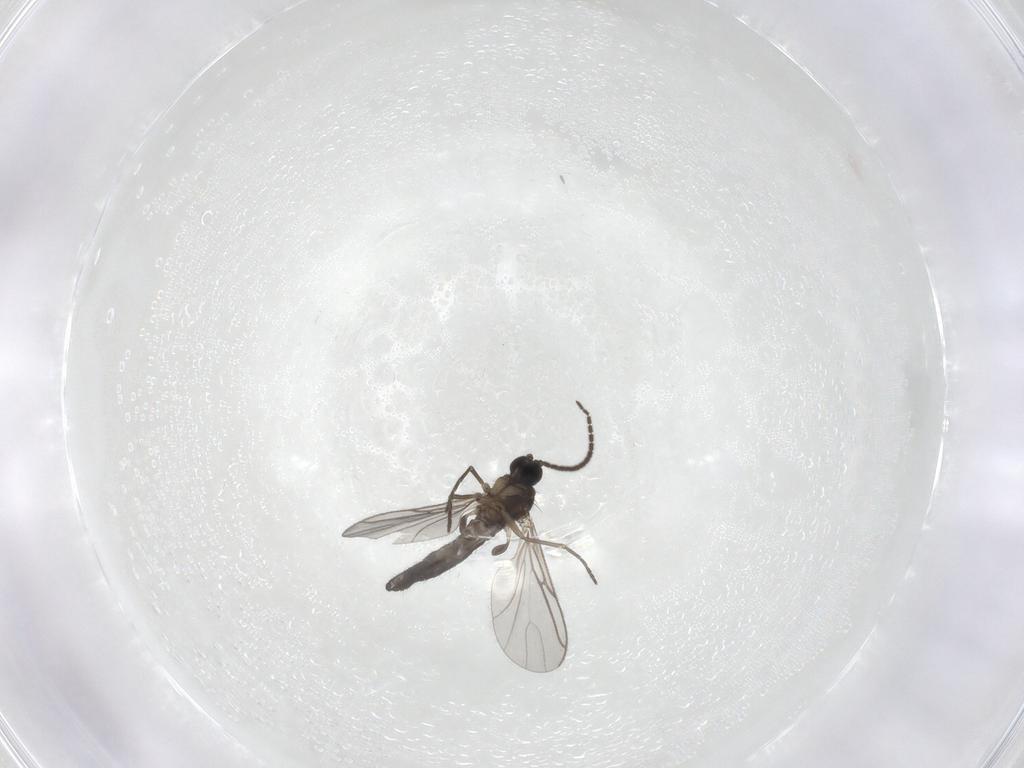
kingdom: Animalia
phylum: Arthropoda
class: Insecta
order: Diptera
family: Sciaridae
